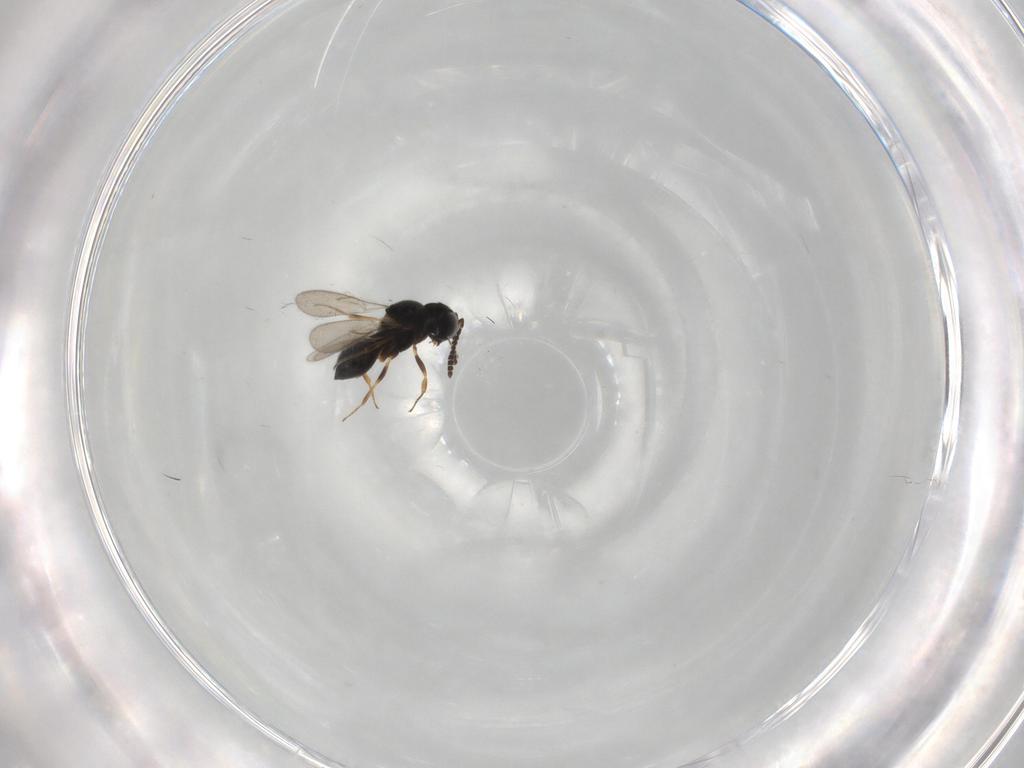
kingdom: Animalia
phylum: Arthropoda
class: Insecta
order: Hymenoptera
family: Scelionidae
